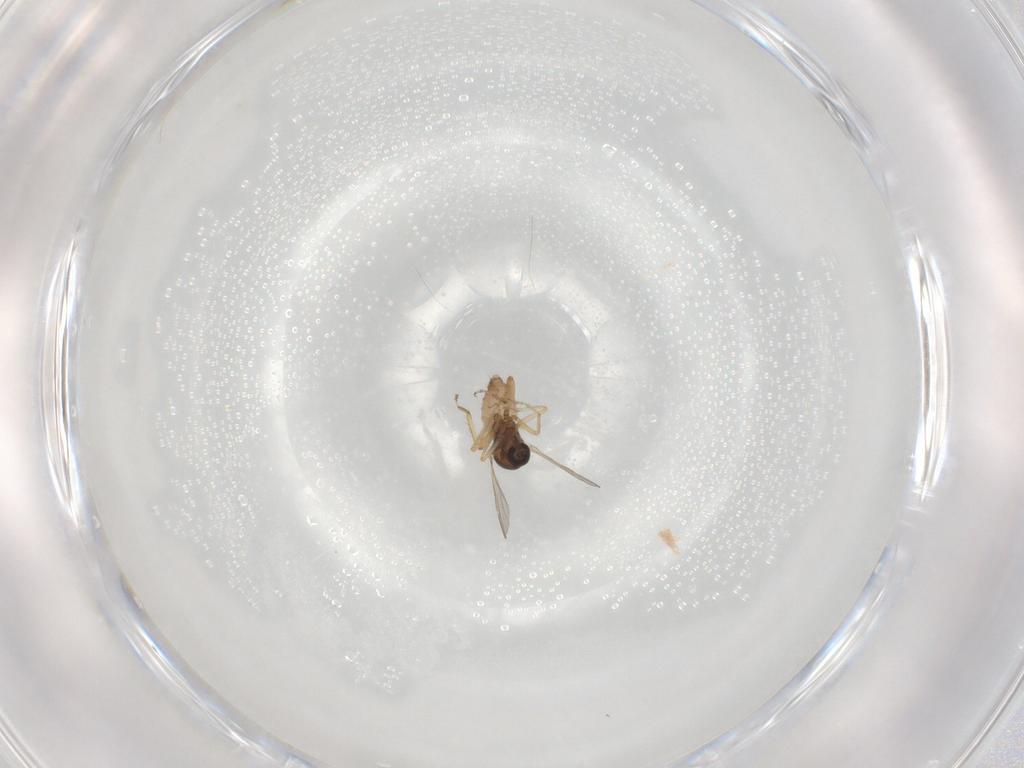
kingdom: Animalia
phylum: Arthropoda
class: Insecta
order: Diptera
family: Ceratopogonidae
